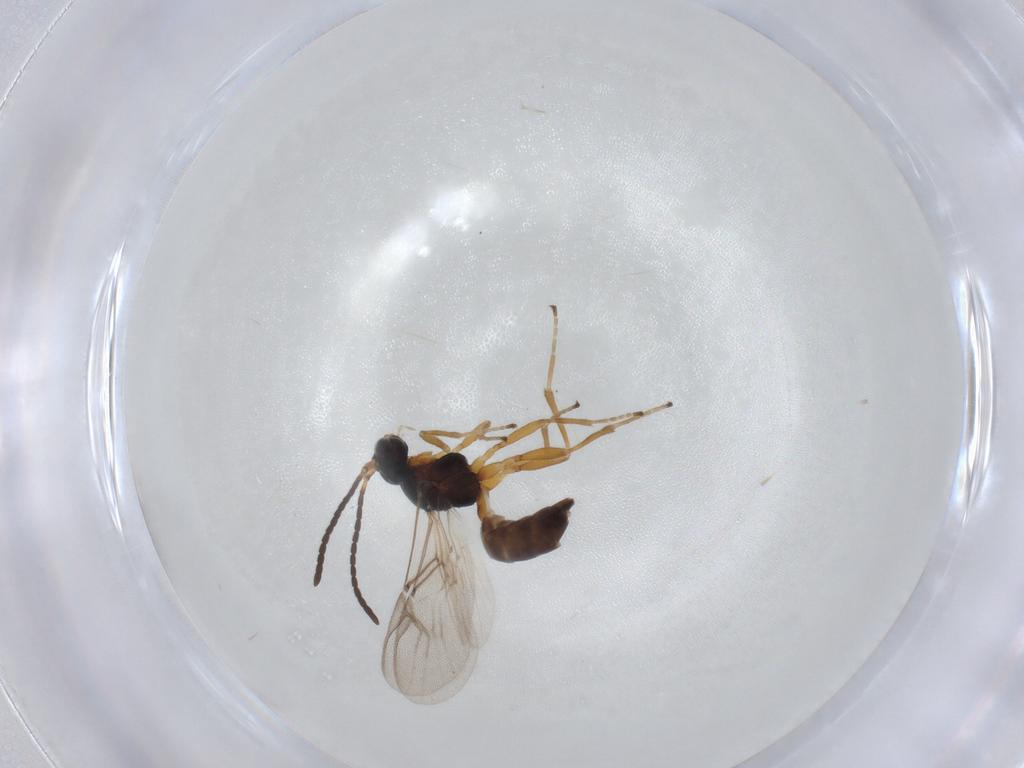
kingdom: Animalia
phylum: Arthropoda
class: Insecta
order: Hymenoptera
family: Braconidae
